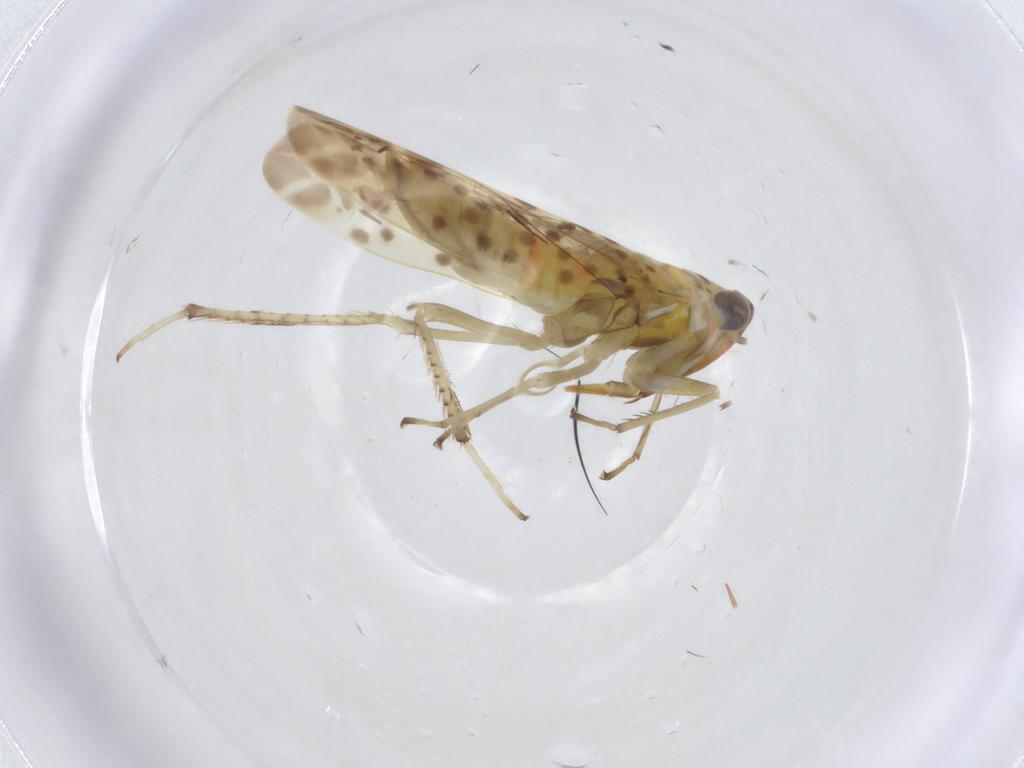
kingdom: Animalia
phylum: Arthropoda
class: Insecta
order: Hemiptera
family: Cicadellidae
